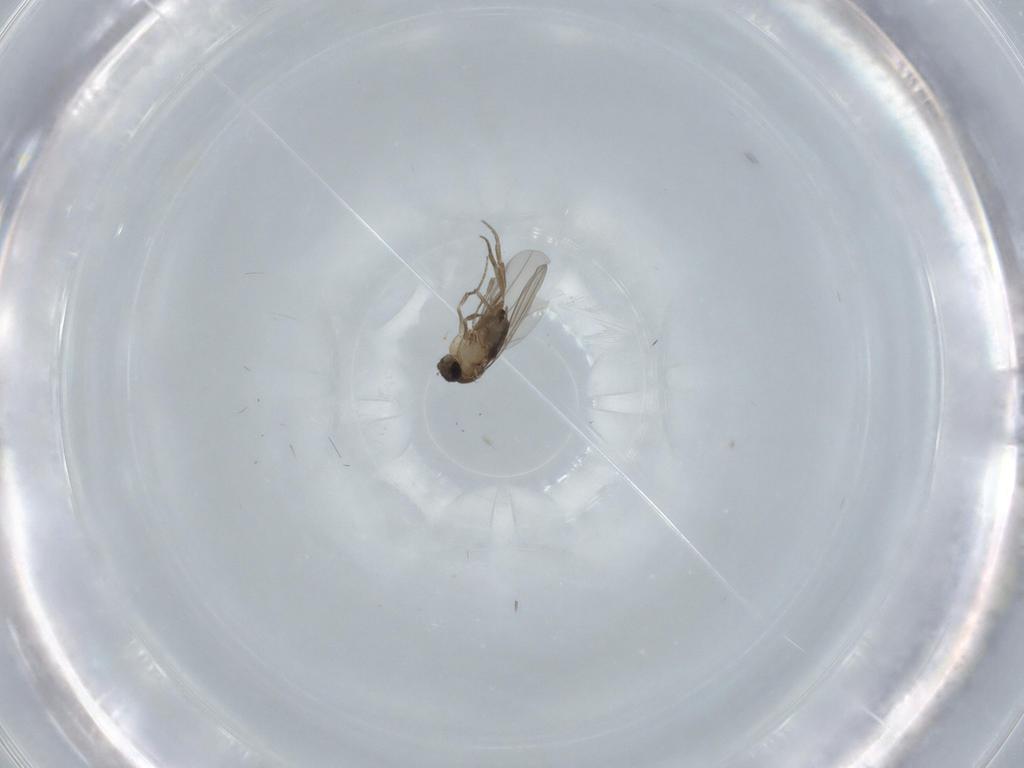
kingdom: Animalia
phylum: Arthropoda
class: Insecta
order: Diptera
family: Phoridae
